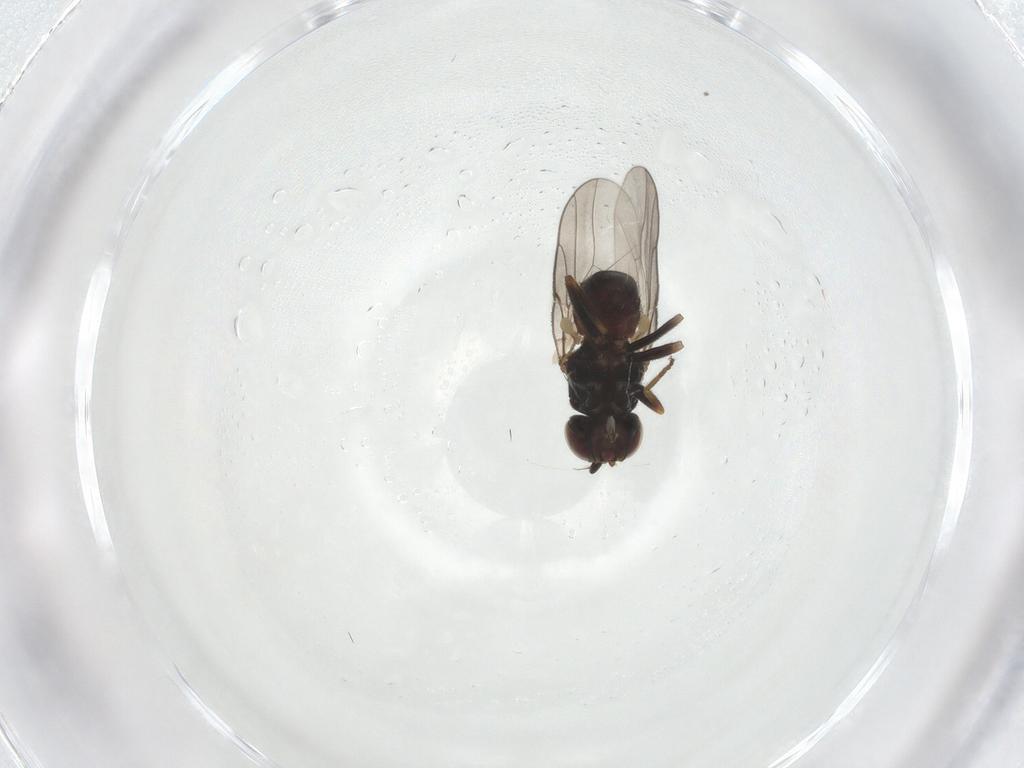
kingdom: Animalia
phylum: Arthropoda
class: Insecta
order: Diptera
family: Chloropidae
